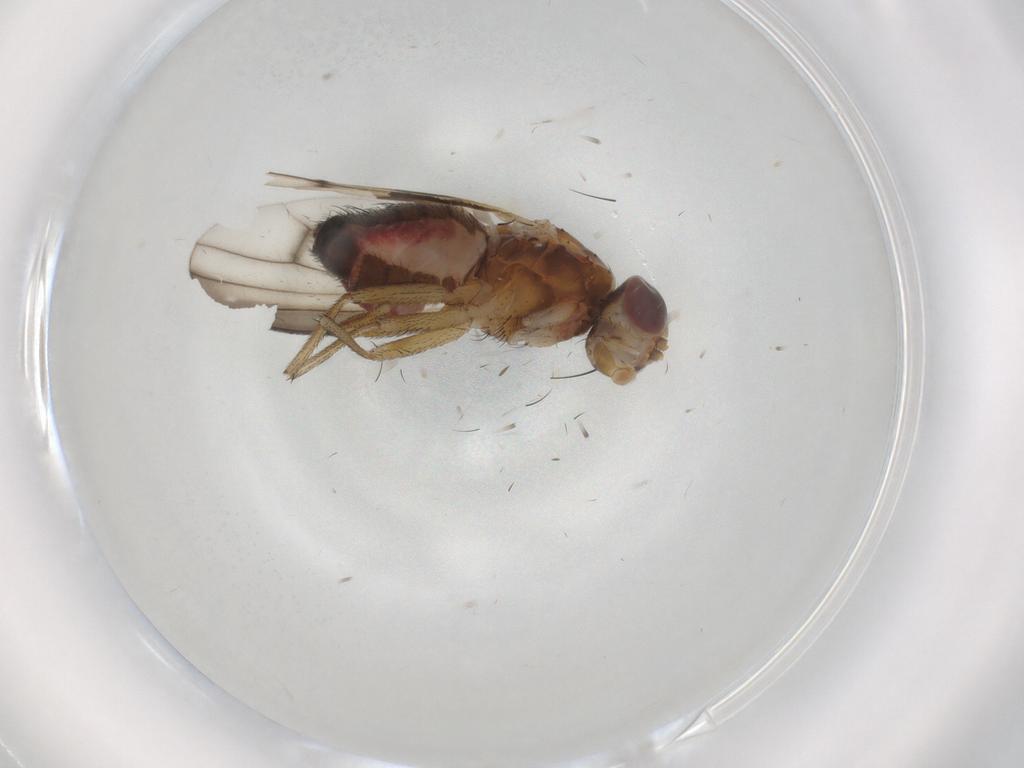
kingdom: Animalia
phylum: Arthropoda
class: Insecta
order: Diptera
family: Heleomyzidae
